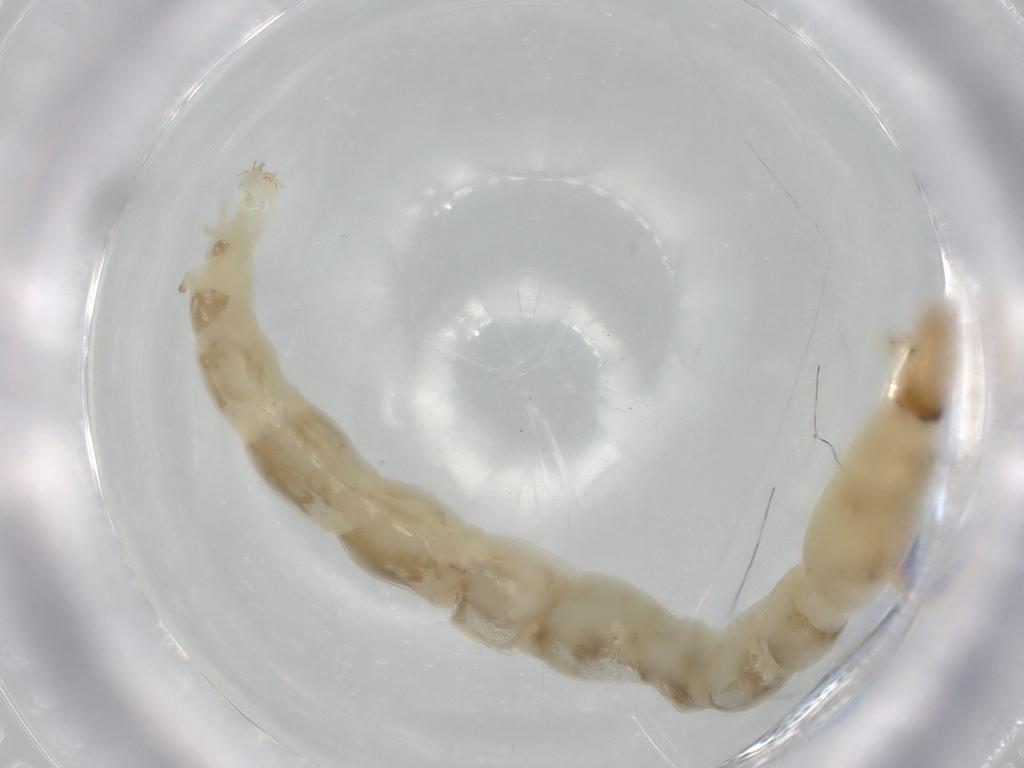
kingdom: Animalia
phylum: Arthropoda
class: Insecta
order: Diptera
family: Chironomidae
